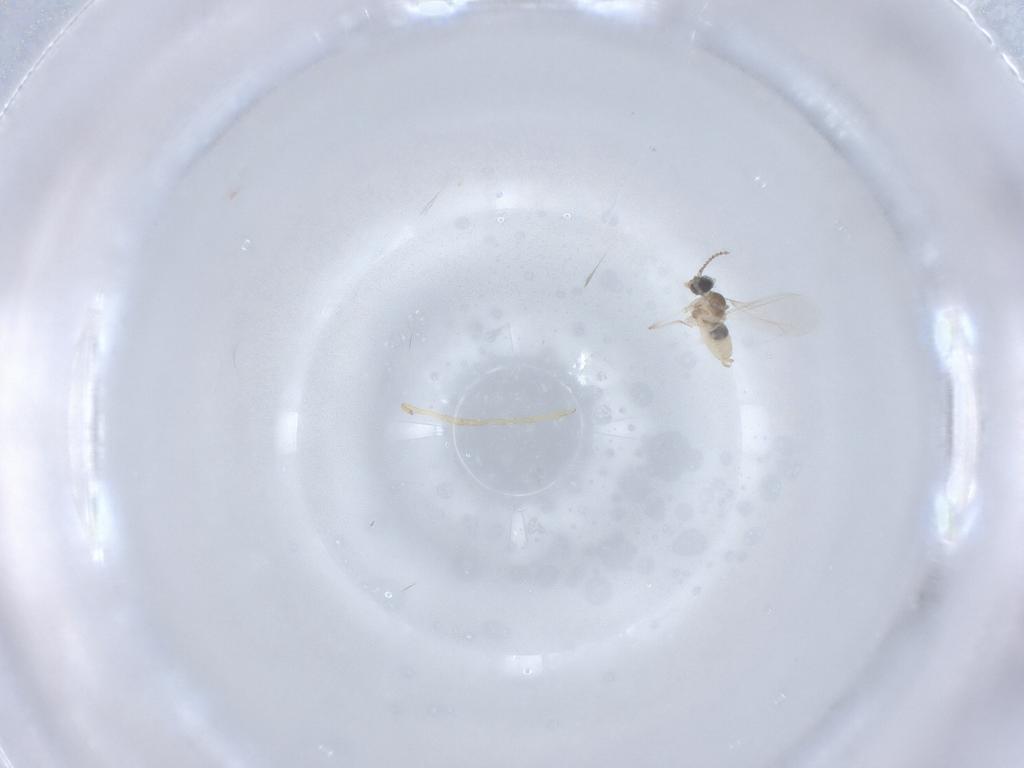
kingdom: Animalia
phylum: Arthropoda
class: Insecta
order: Diptera
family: Cecidomyiidae
